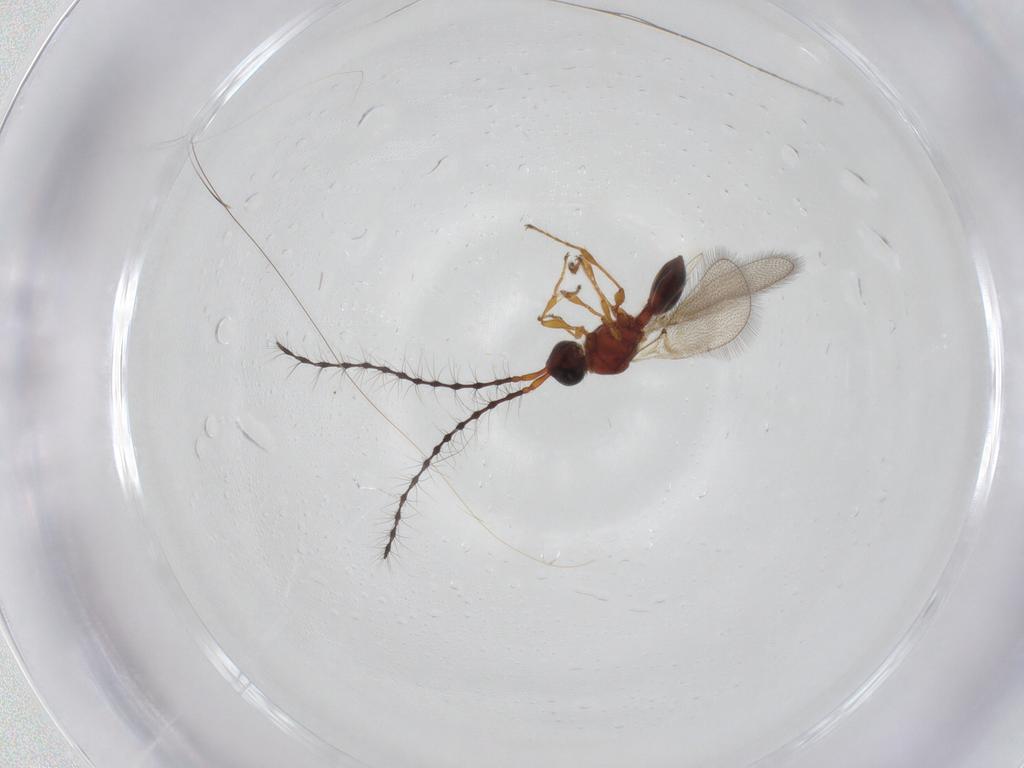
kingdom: Animalia
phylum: Arthropoda
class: Insecta
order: Hymenoptera
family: Diapriidae
